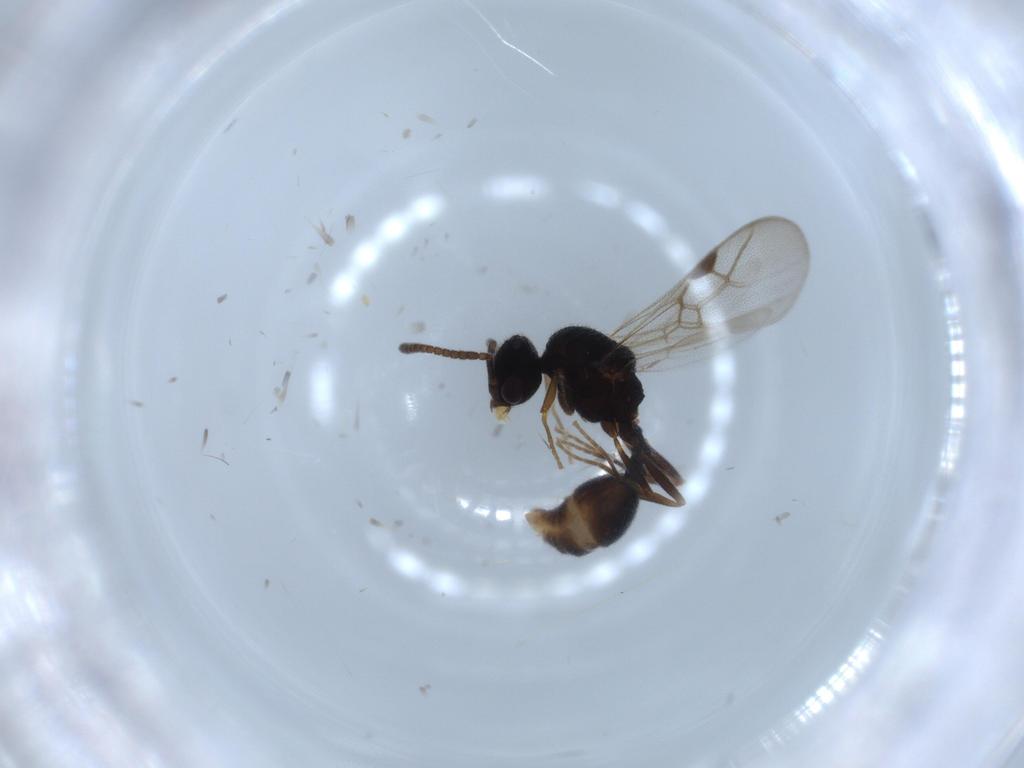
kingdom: Animalia
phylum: Arthropoda
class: Insecta
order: Hymenoptera
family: Formicidae
